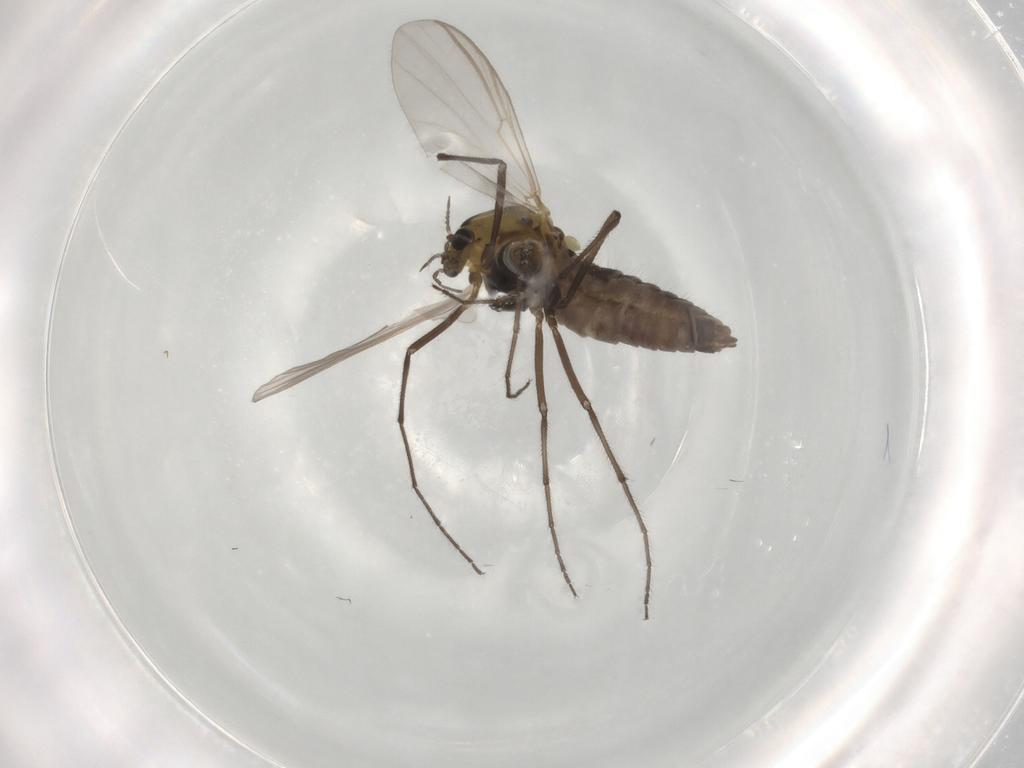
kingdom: Animalia
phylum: Arthropoda
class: Insecta
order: Diptera
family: Chironomidae
